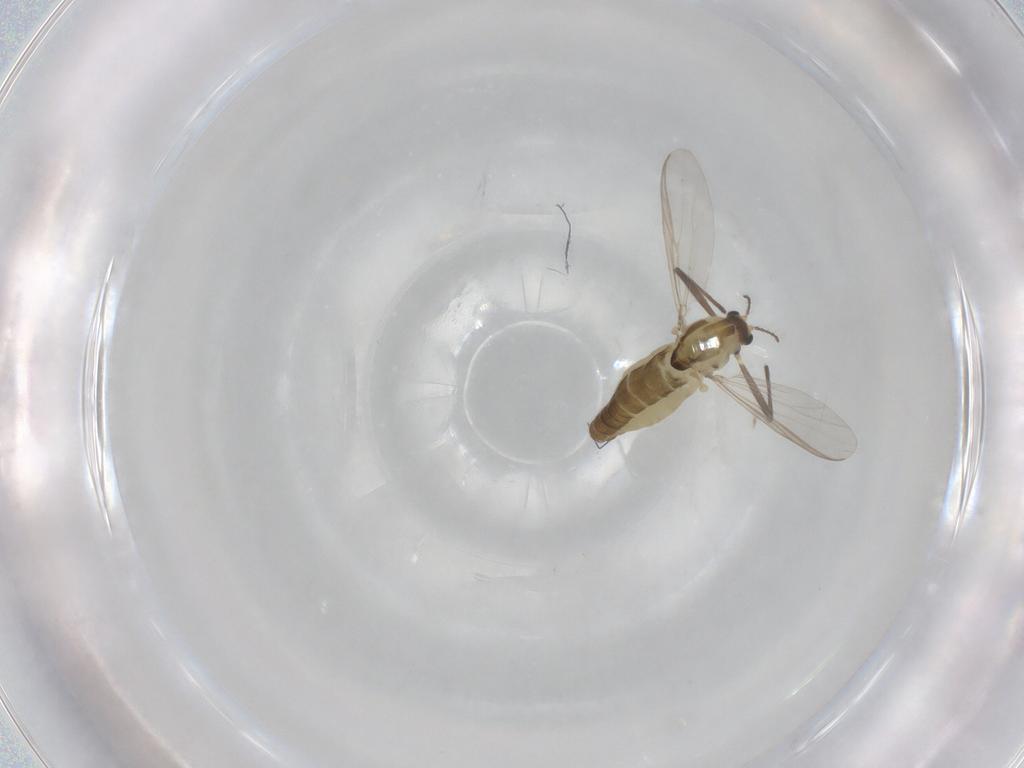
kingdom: Animalia
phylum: Arthropoda
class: Insecta
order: Diptera
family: Chironomidae
